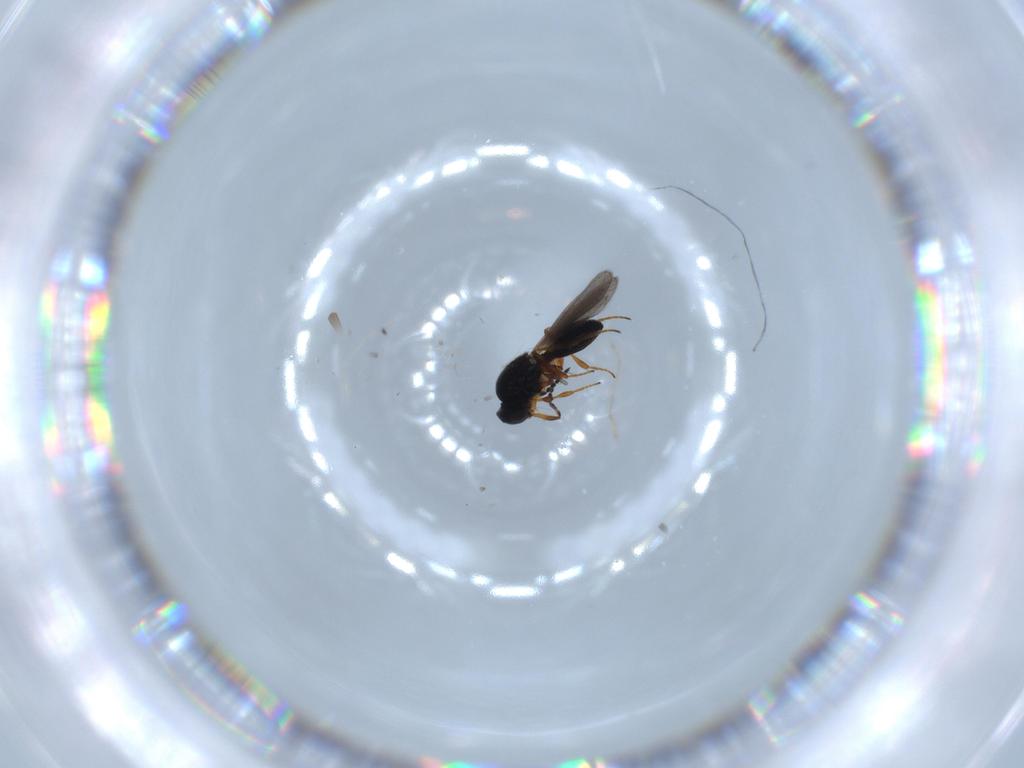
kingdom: Animalia
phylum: Arthropoda
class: Insecta
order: Hymenoptera
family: Platygastridae
